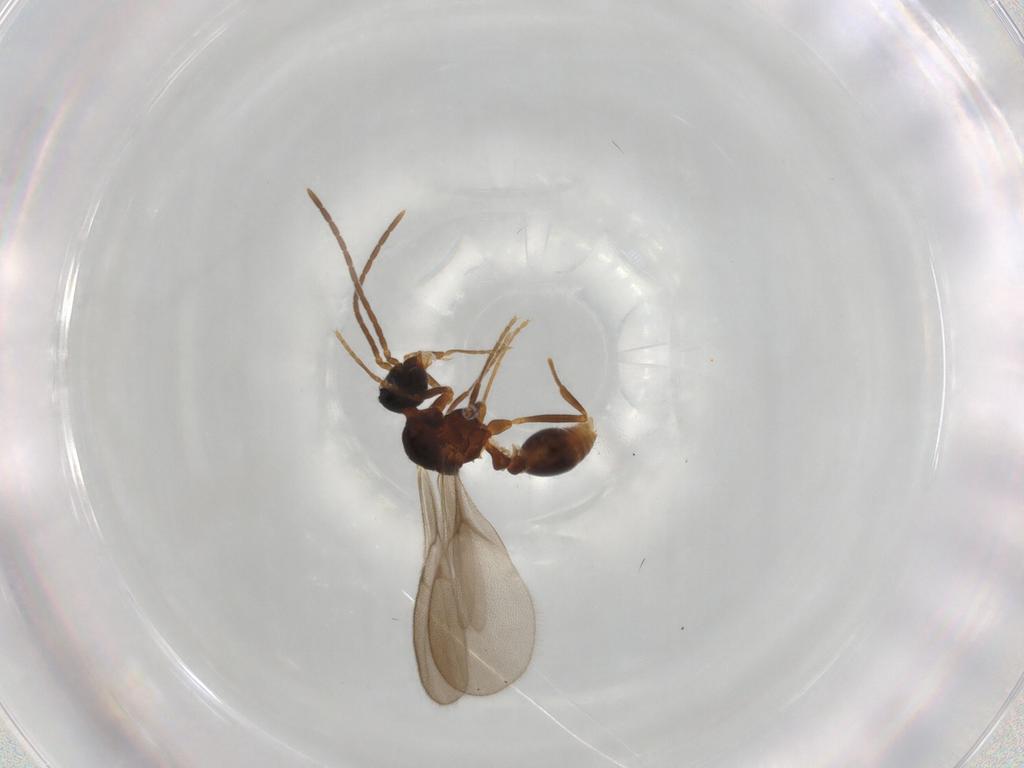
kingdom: Animalia
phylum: Arthropoda
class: Insecta
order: Hymenoptera
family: Formicidae
